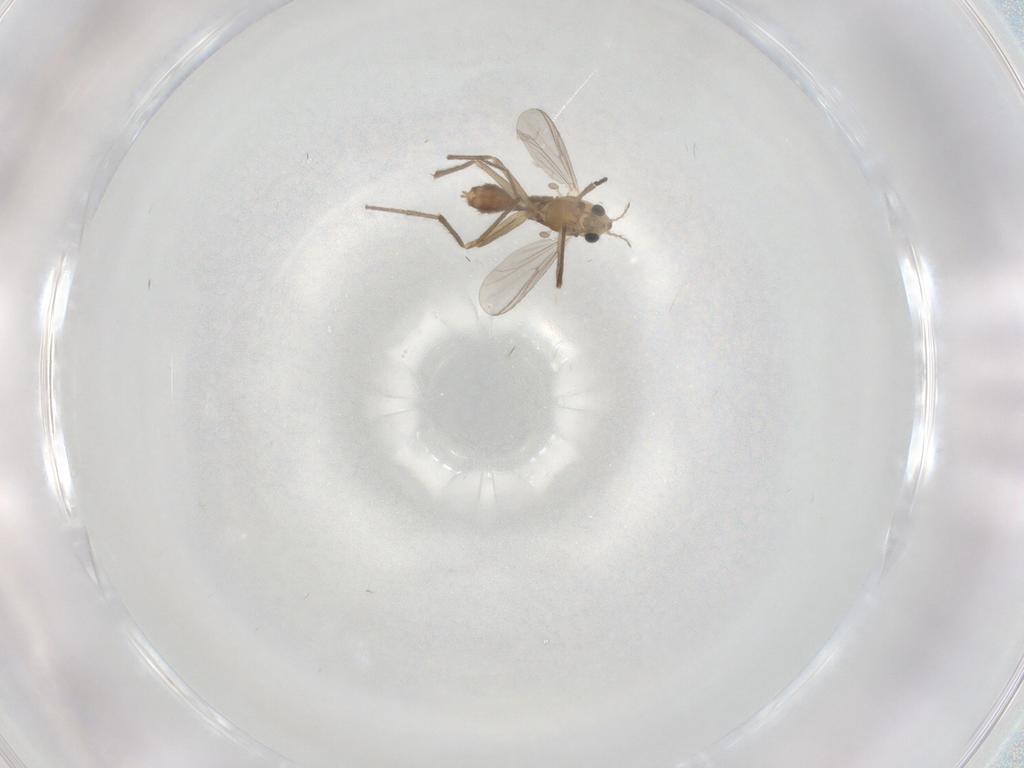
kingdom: Animalia
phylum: Arthropoda
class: Insecta
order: Diptera
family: Chironomidae
